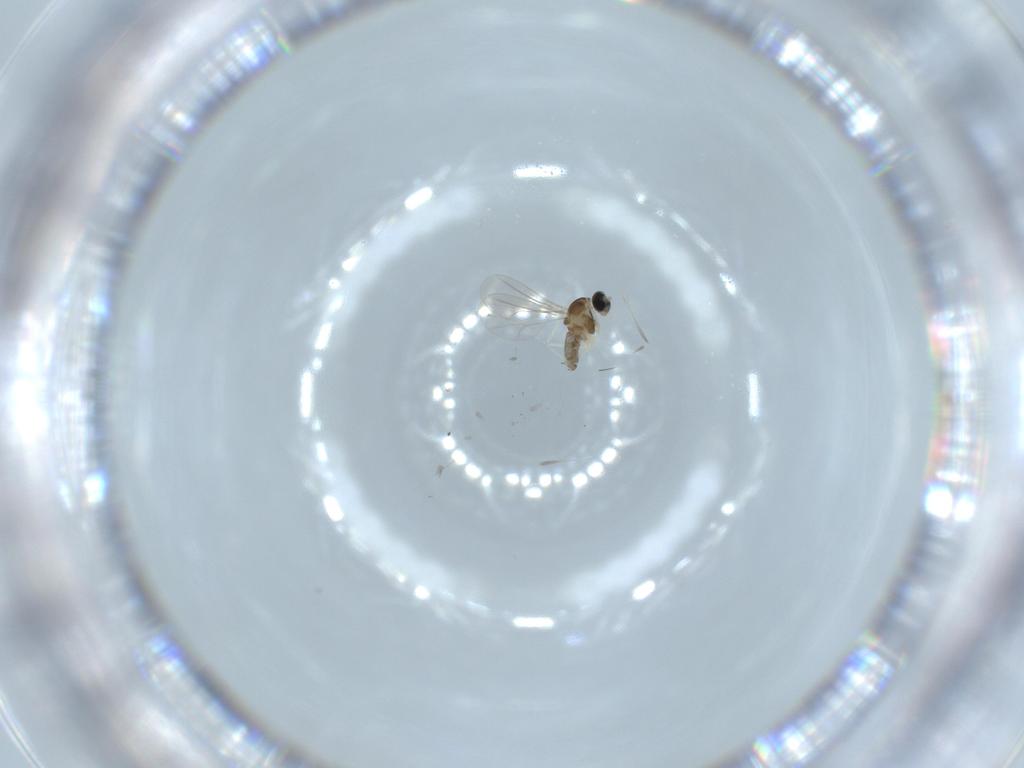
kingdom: Animalia
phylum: Arthropoda
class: Insecta
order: Diptera
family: Cecidomyiidae
